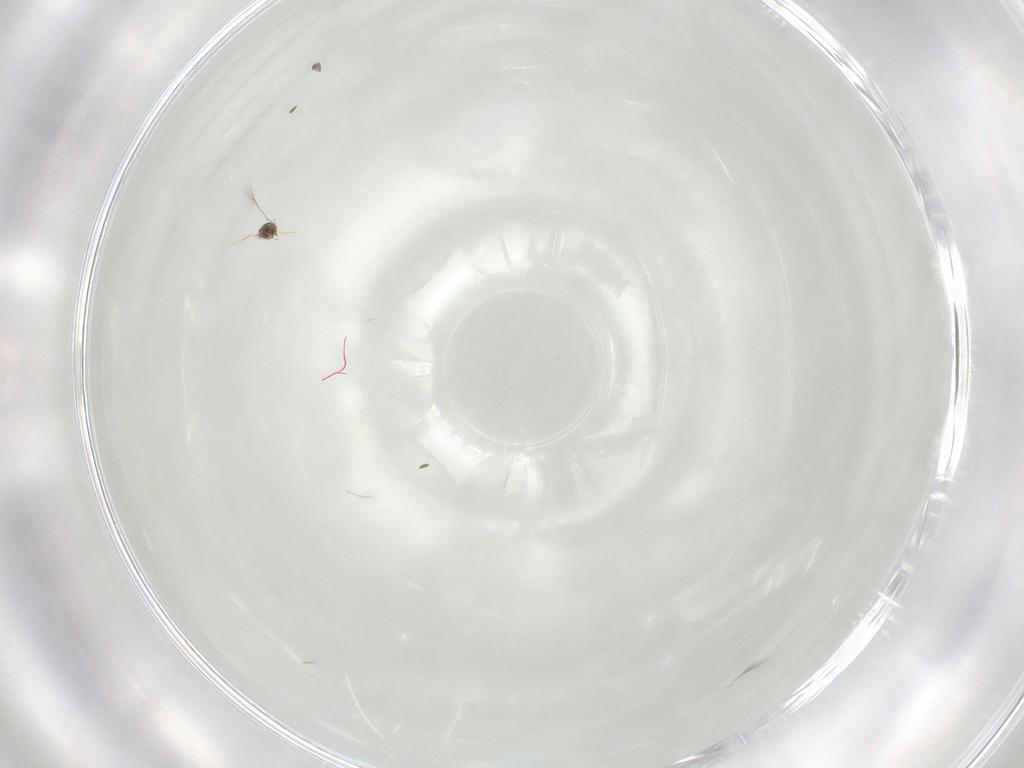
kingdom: Animalia
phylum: Arthropoda
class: Insecta
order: Hymenoptera
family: Mymaridae
